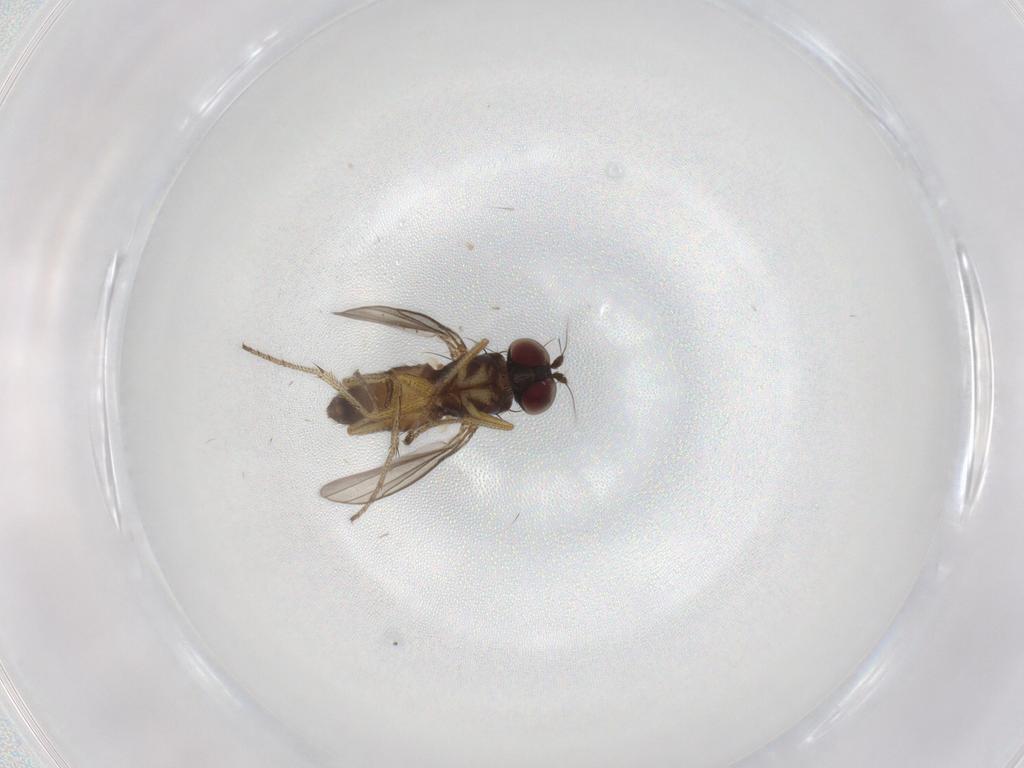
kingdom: Animalia
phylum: Arthropoda
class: Insecta
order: Diptera
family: Dolichopodidae
